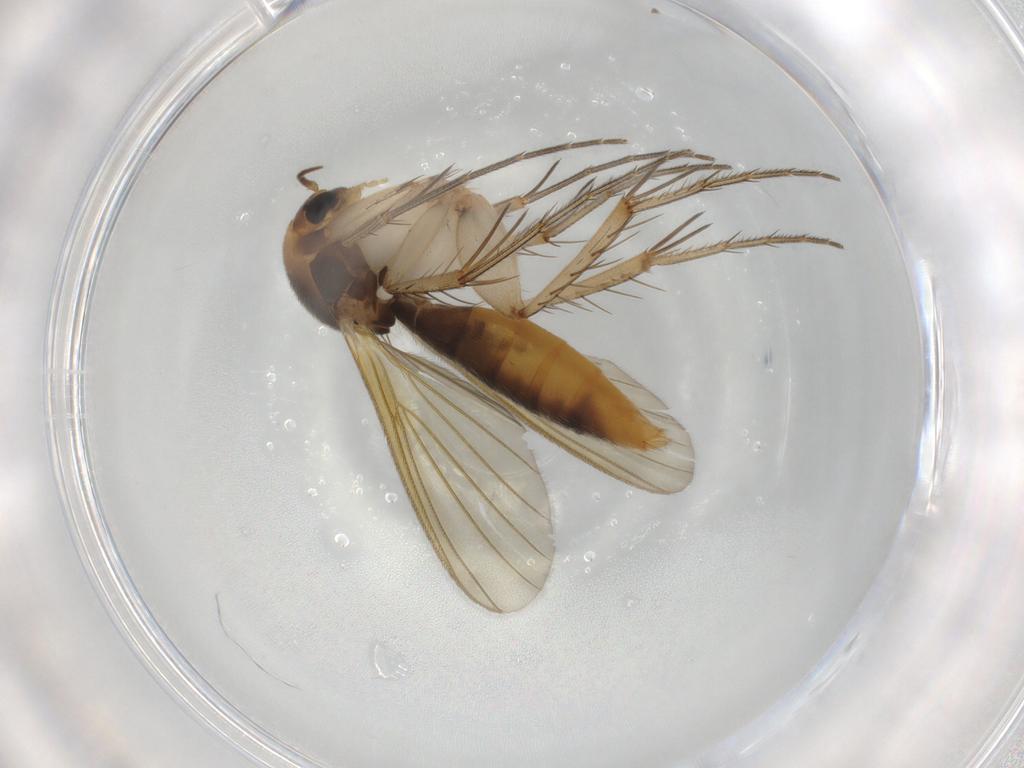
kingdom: Animalia
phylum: Arthropoda
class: Insecta
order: Diptera
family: Mycetophilidae
